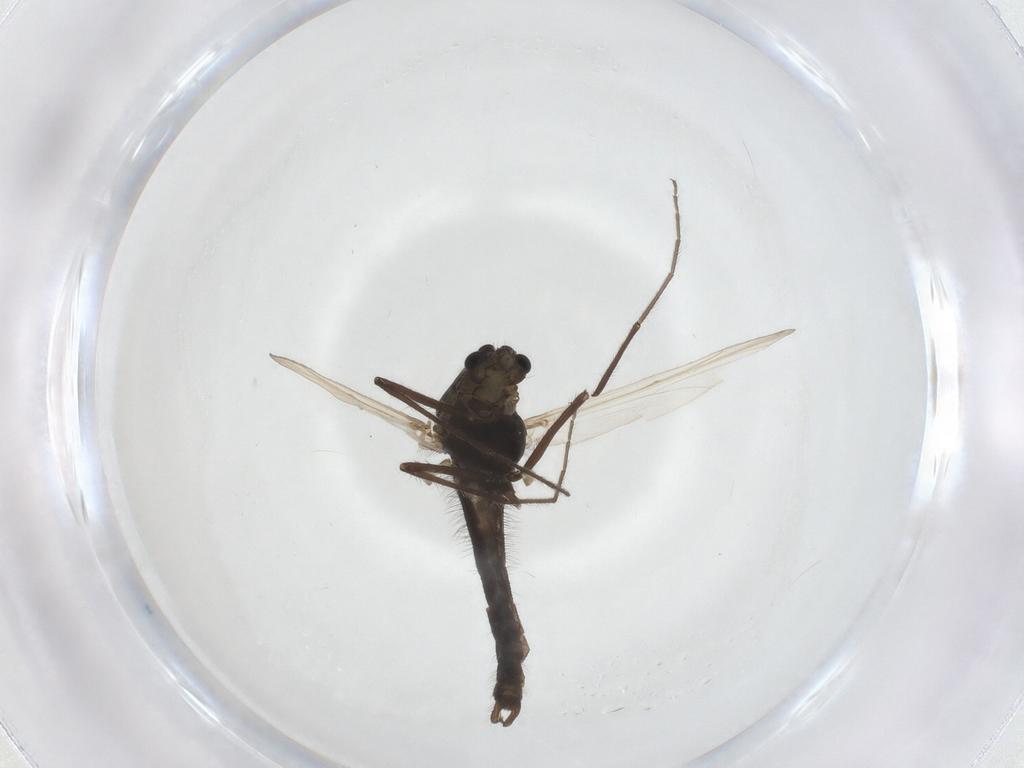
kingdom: Animalia
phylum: Arthropoda
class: Insecta
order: Diptera
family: Chironomidae
